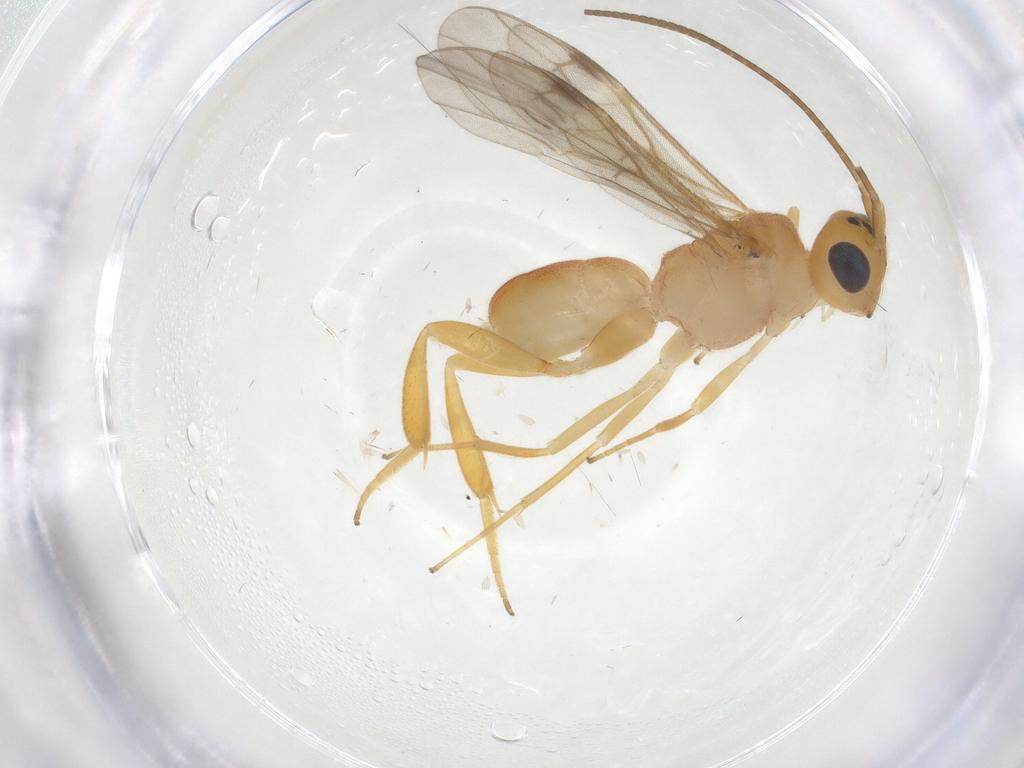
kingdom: Animalia
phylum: Arthropoda
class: Insecta
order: Hymenoptera
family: Braconidae
